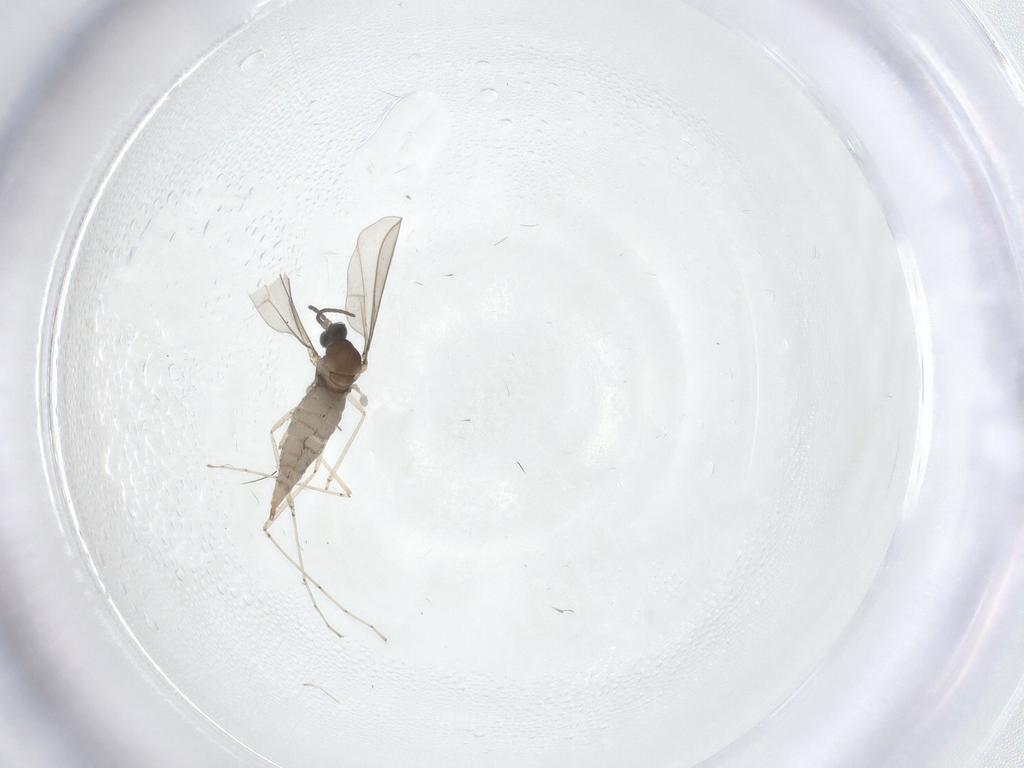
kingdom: Animalia
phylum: Arthropoda
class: Insecta
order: Diptera
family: Cecidomyiidae
